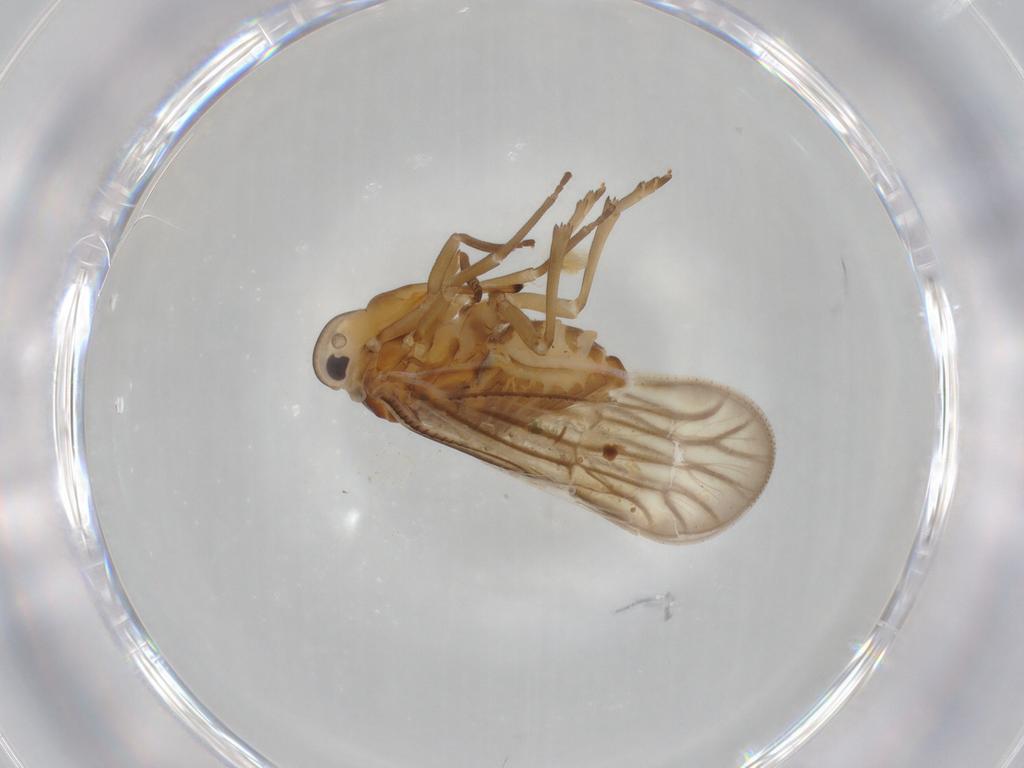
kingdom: Animalia
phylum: Arthropoda
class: Insecta
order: Hemiptera
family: Meenoplidae
